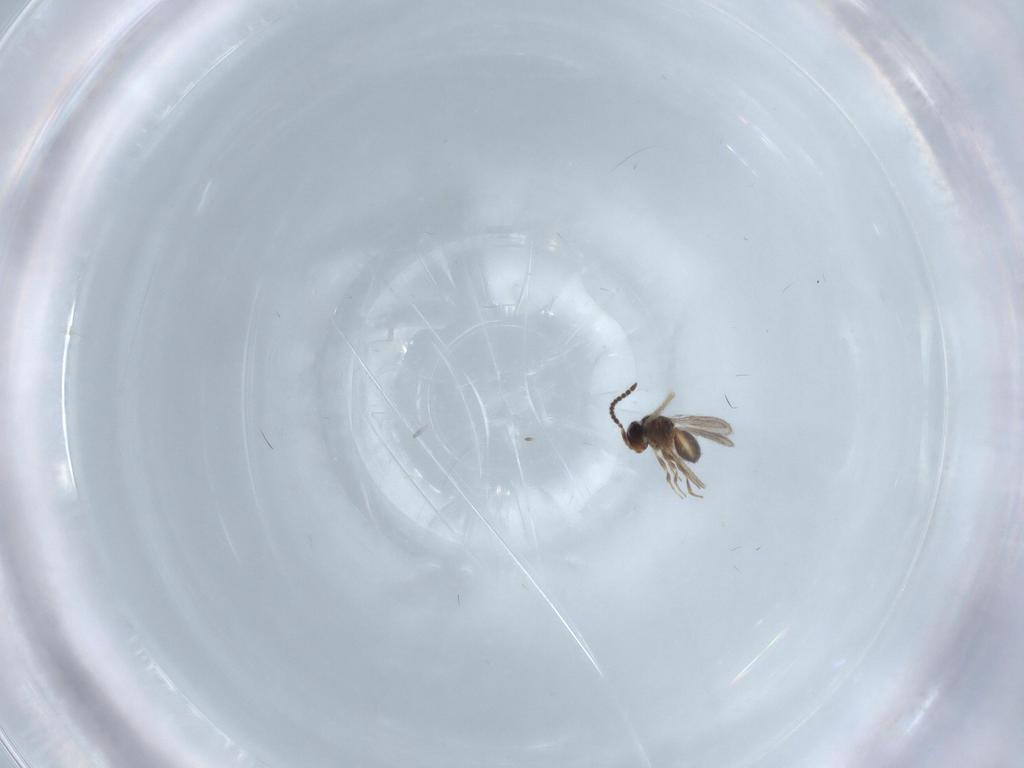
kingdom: Animalia
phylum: Arthropoda
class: Insecta
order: Hymenoptera
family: Scelionidae
